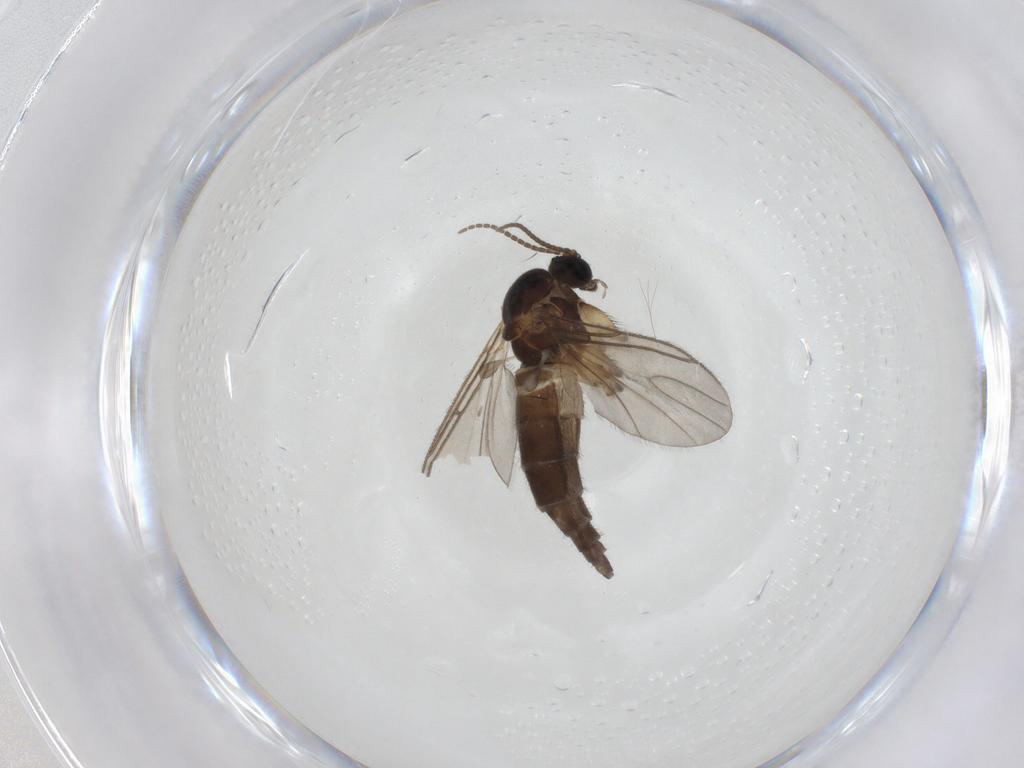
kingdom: Animalia
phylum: Arthropoda
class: Insecta
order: Diptera
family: Sciaridae
